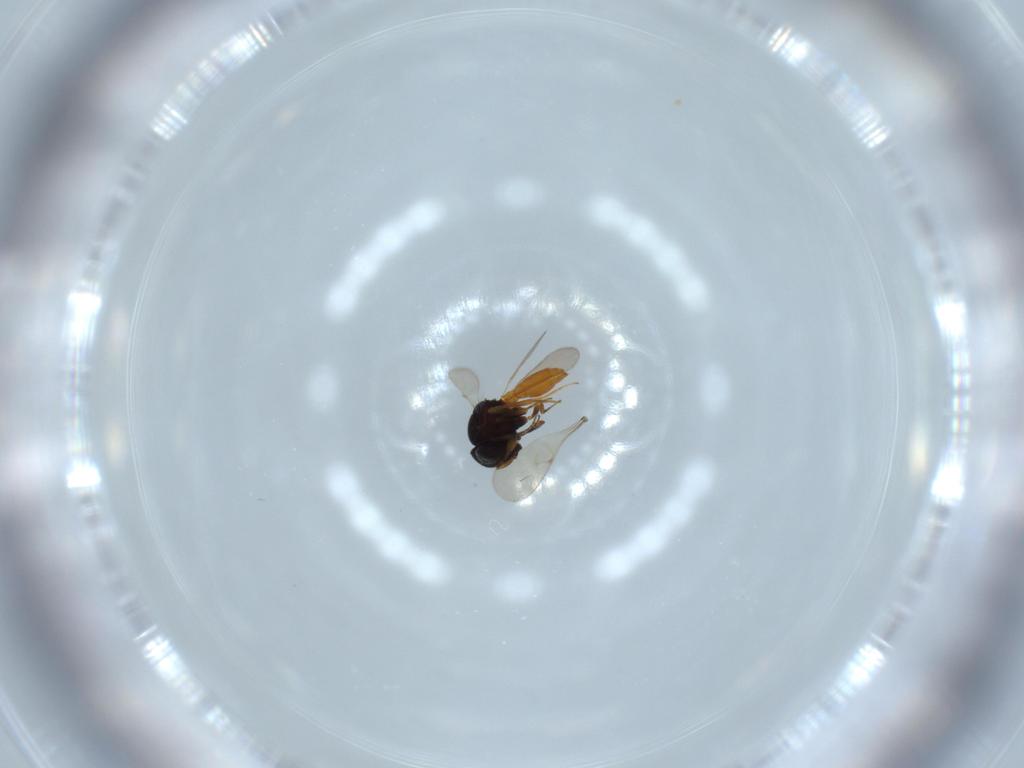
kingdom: Animalia
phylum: Arthropoda
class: Insecta
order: Hymenoptera
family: Scelionidae
